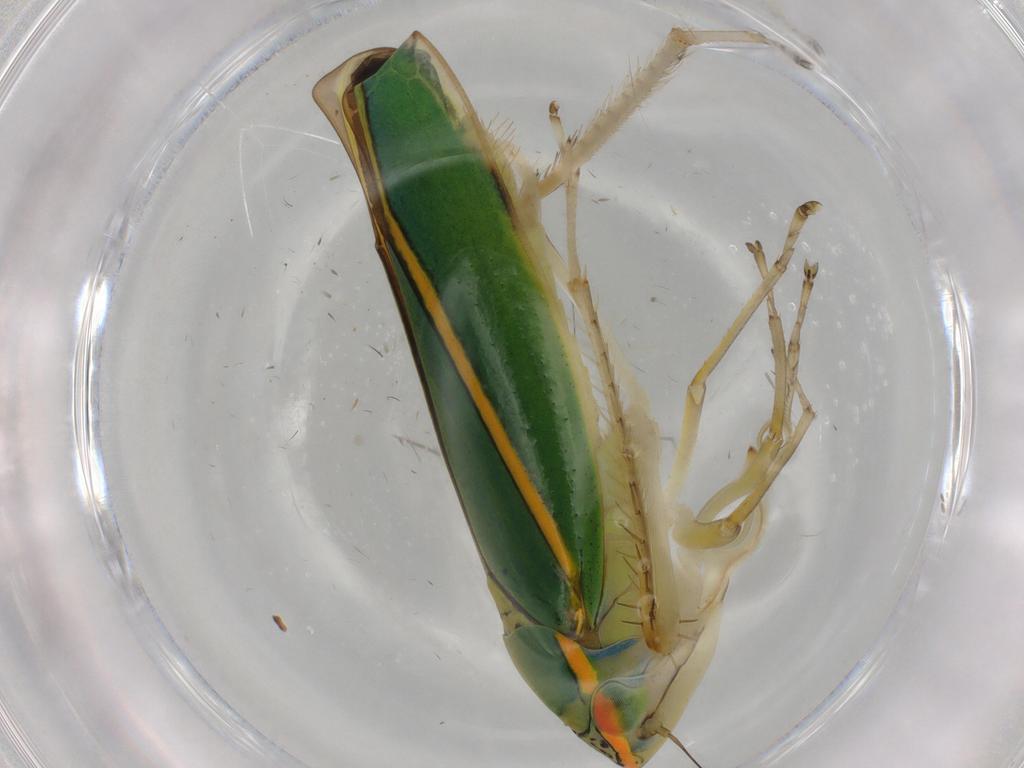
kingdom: Animalia
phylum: Arthropoda
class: Insecta
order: Hemiptera
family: Cicadellidae
